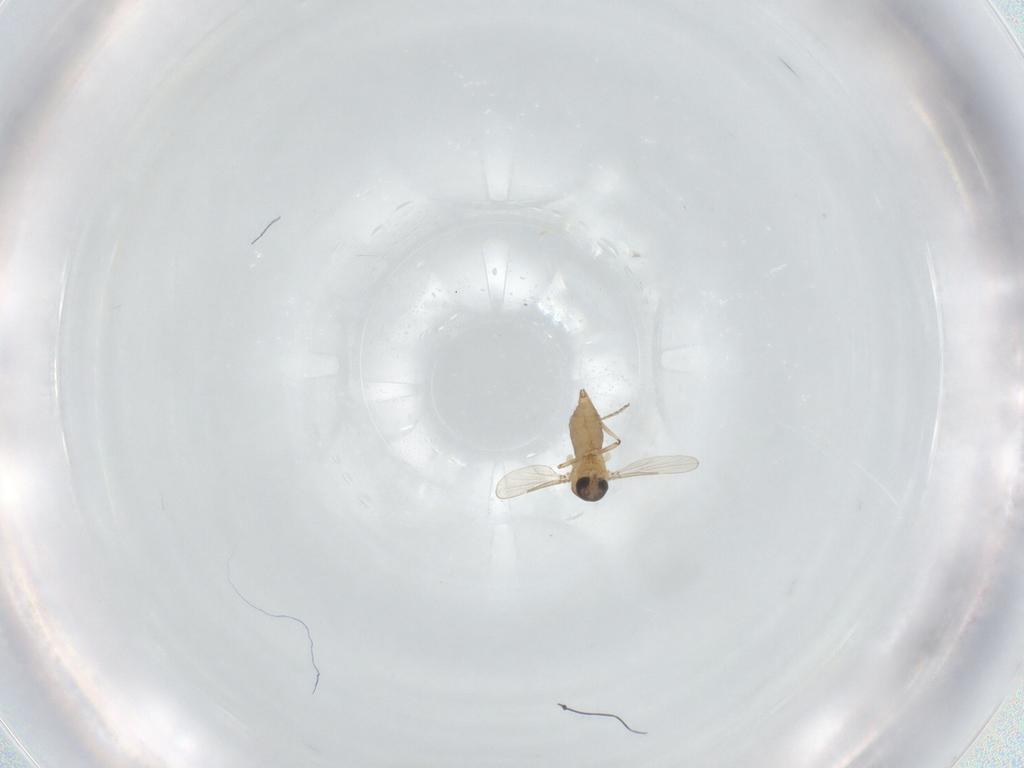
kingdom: Animalia
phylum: Arthropoda
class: Insecta
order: Diptera
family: Ceratopogonidae
